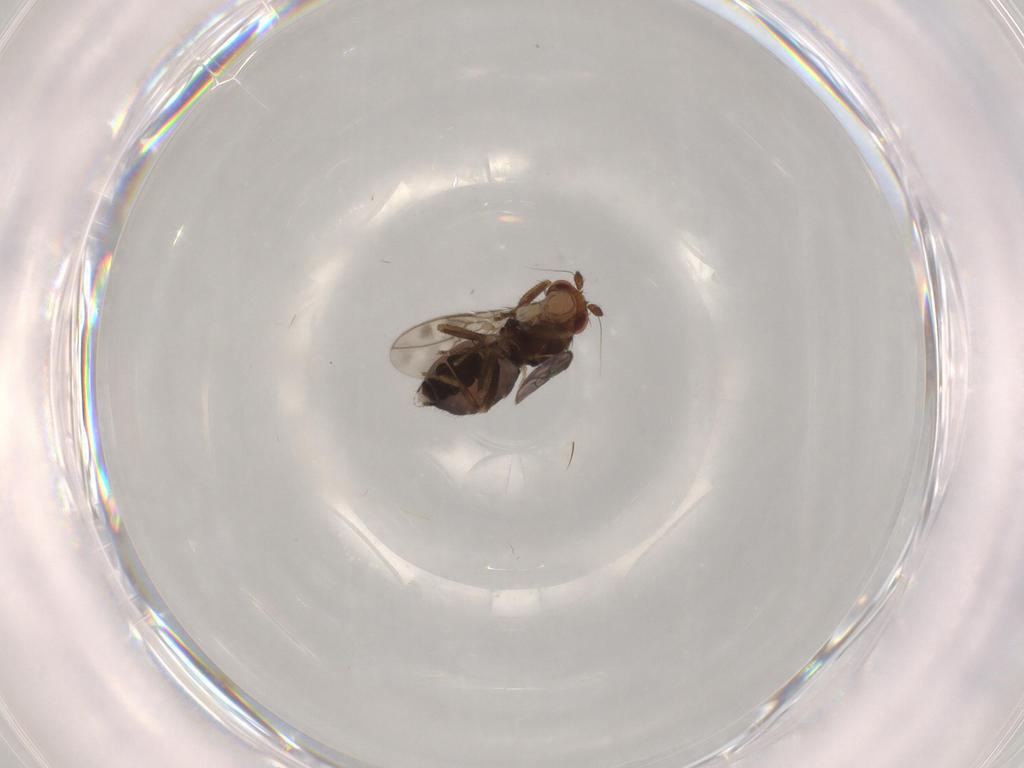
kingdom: Animalia
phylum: Arthropoda
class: Insecta
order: Diptera
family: Sphaeroceridae
